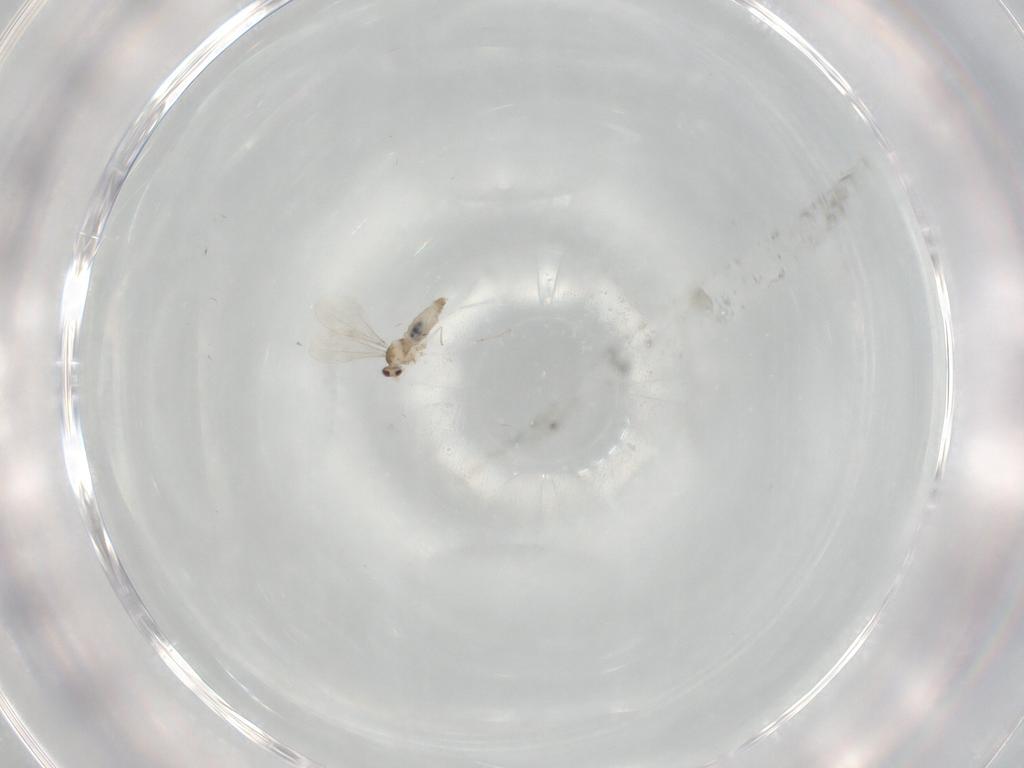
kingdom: Animalia
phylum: Arthropoda
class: Insecta
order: Diptera
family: Cecidomyiidae
